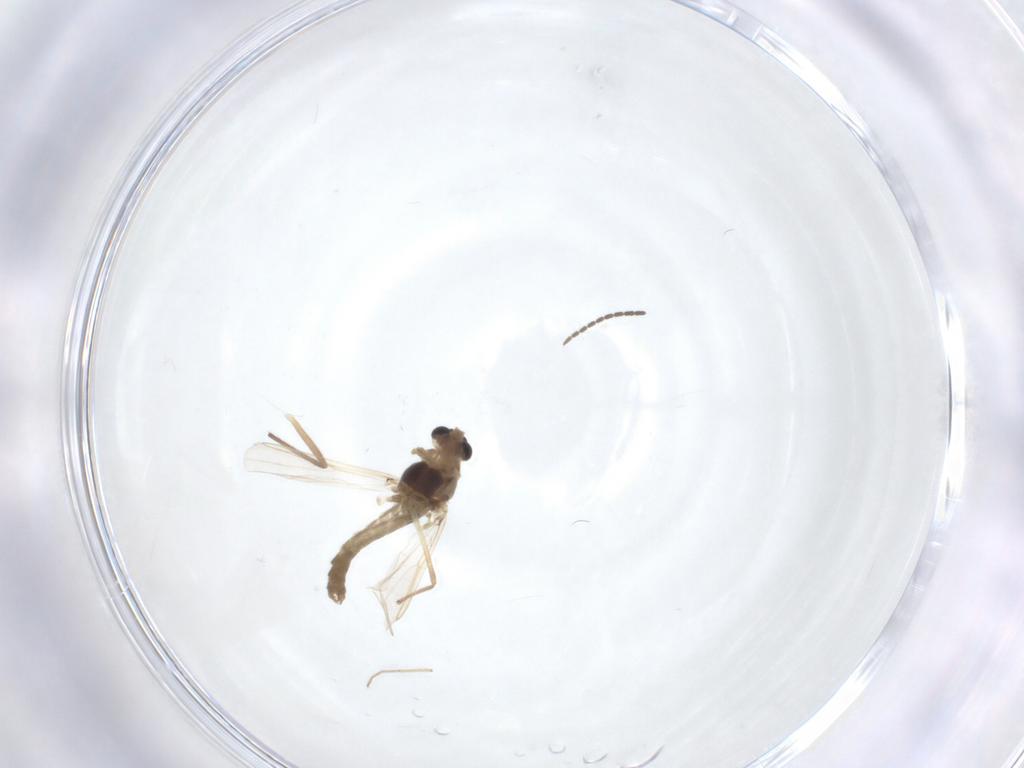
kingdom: Animalia
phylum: Arthropoda
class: Insecta
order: Diptera
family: Chironomidae
